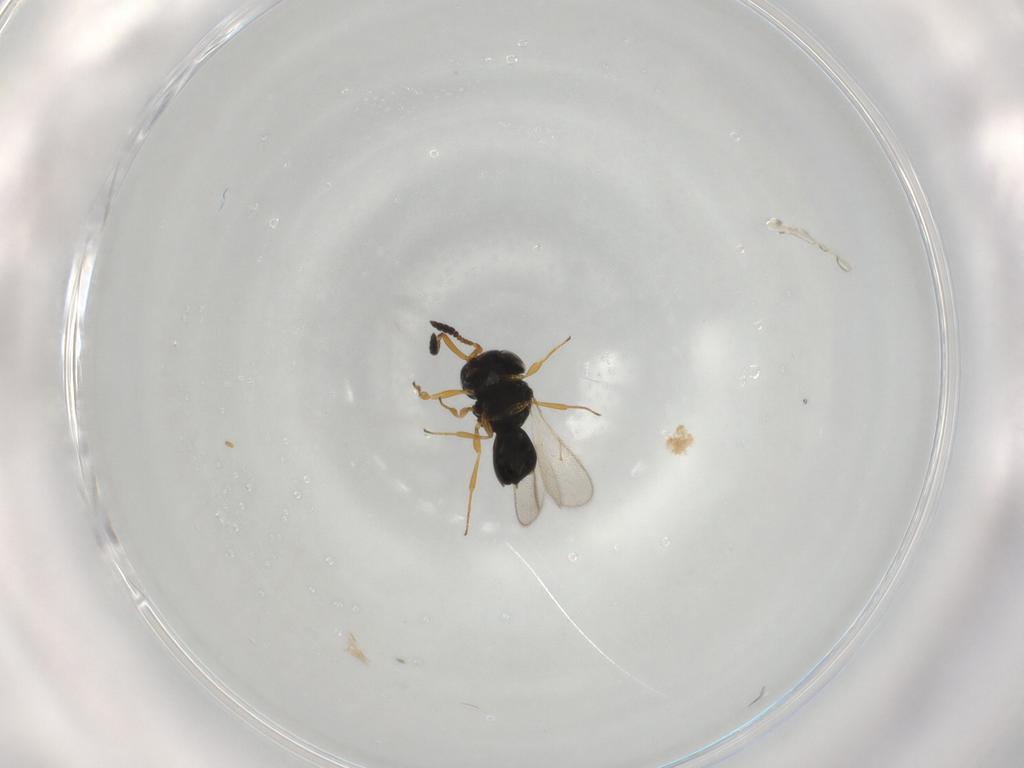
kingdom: Animalia
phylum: Arthropoda
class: Insecta
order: Hymenoptera
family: Scelionidae
